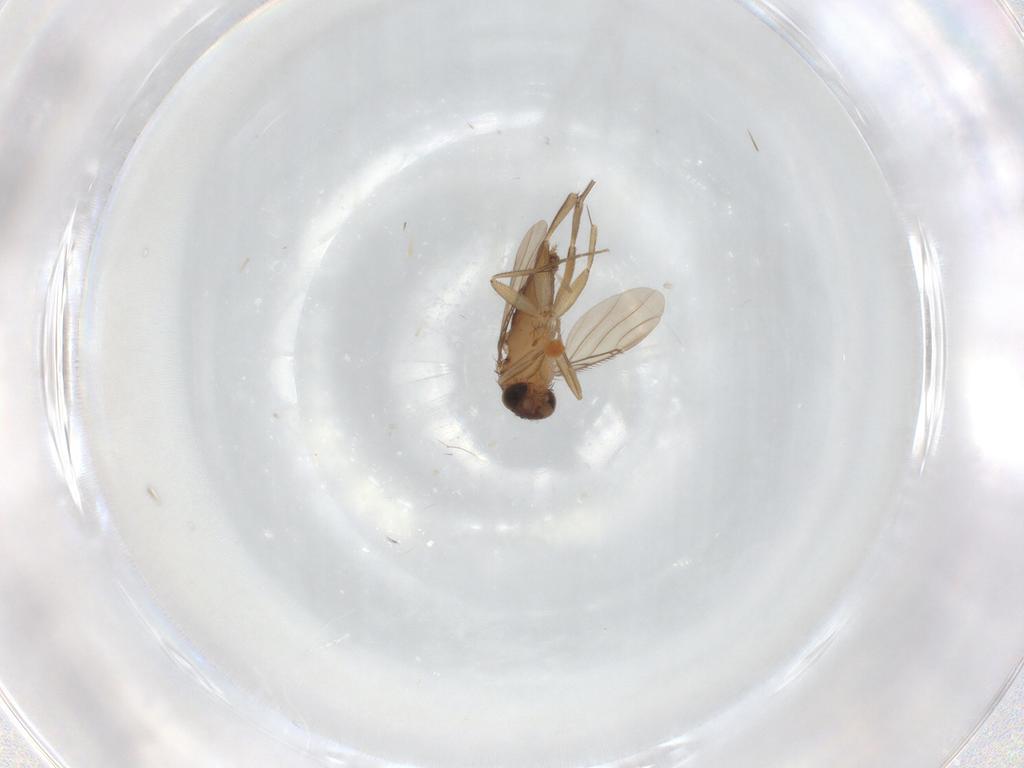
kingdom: Animalia
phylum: Arthropoda
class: Insecta
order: Diptera
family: Phoridae
